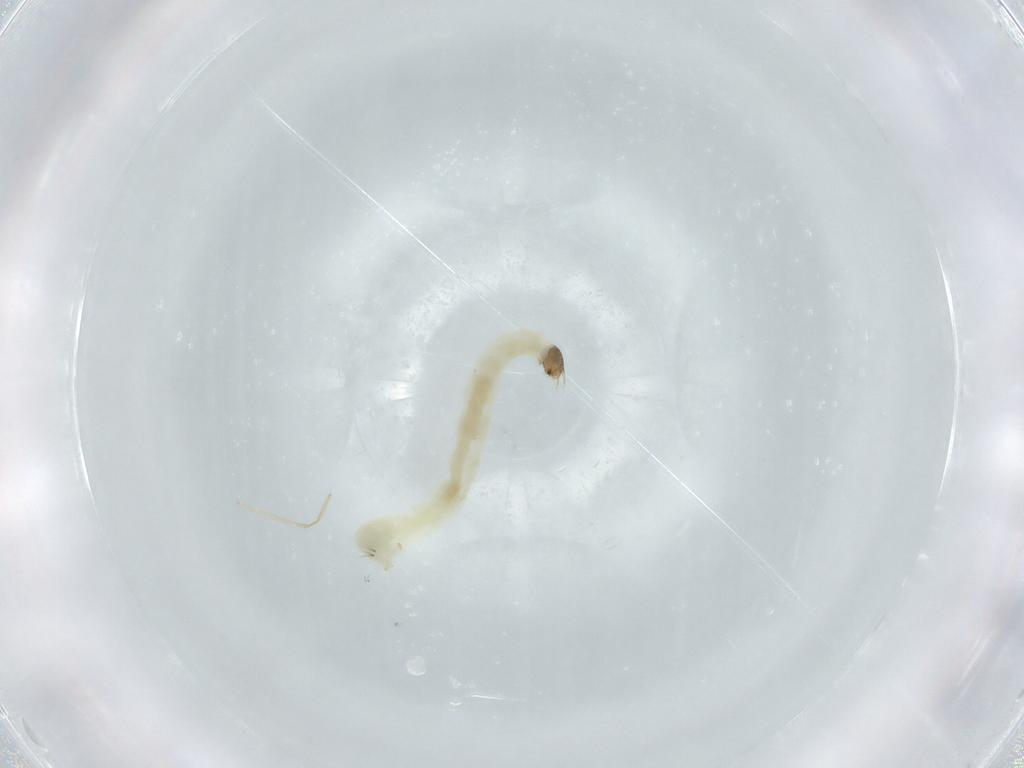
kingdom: Animalia
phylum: Arthropoda
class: Insecta
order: Diptera
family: Chironomidae
